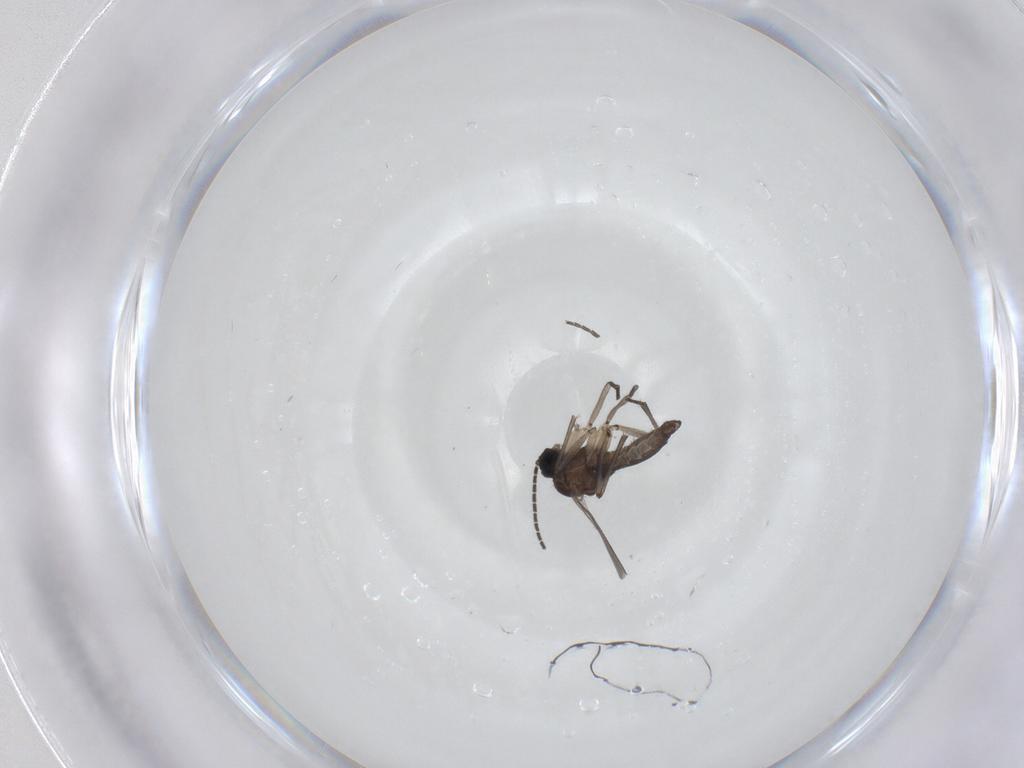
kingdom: Animalia
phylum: Arthropoda
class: Insecta
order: Diptera
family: Sciaridae
